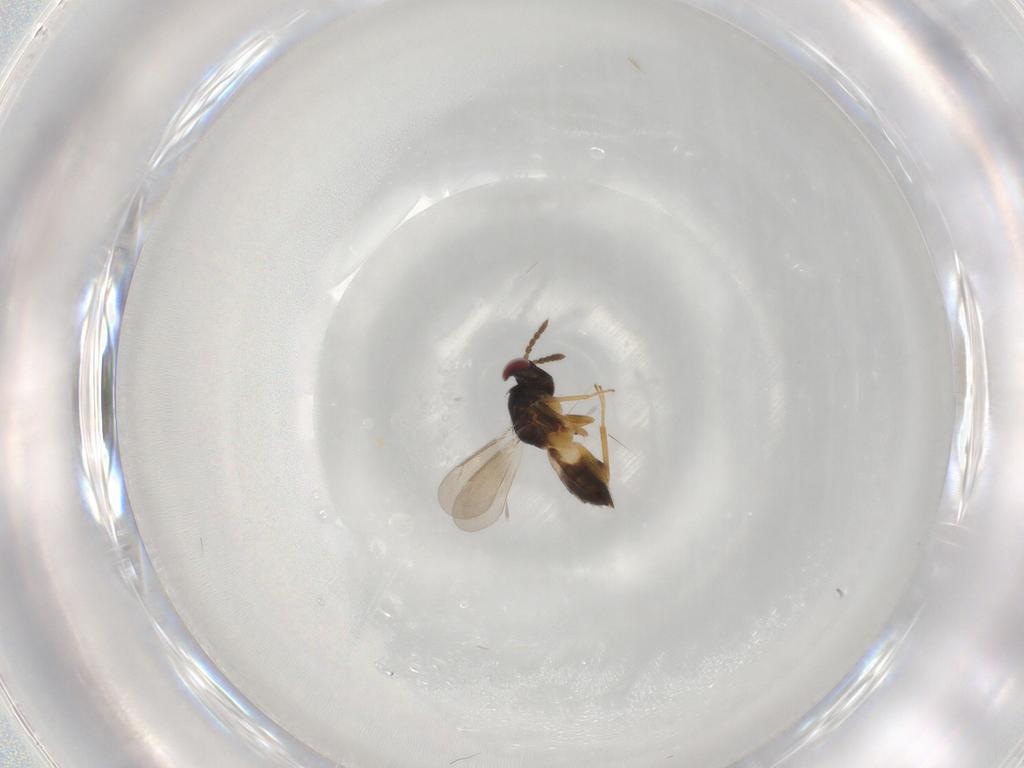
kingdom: Animalia
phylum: Arthropoda
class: Insecta
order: Hymenoptera
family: Eulophidae
